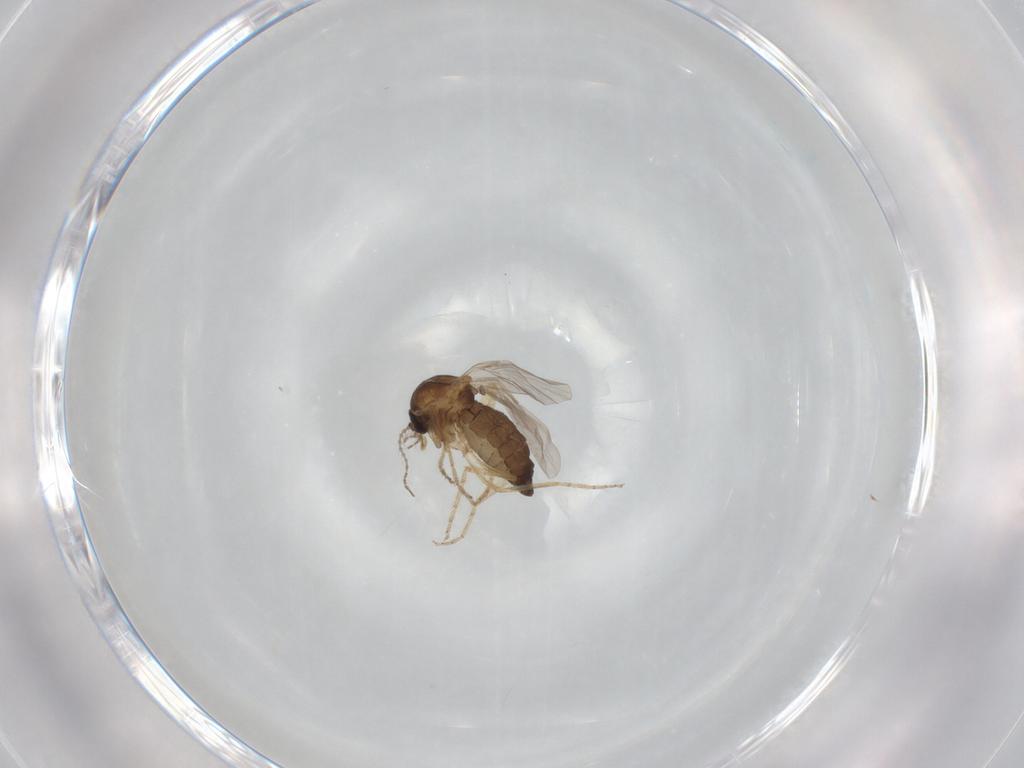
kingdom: Animalia
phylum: Arthropoda
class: Insecta
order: Diptera
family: Ceratopogonidae
